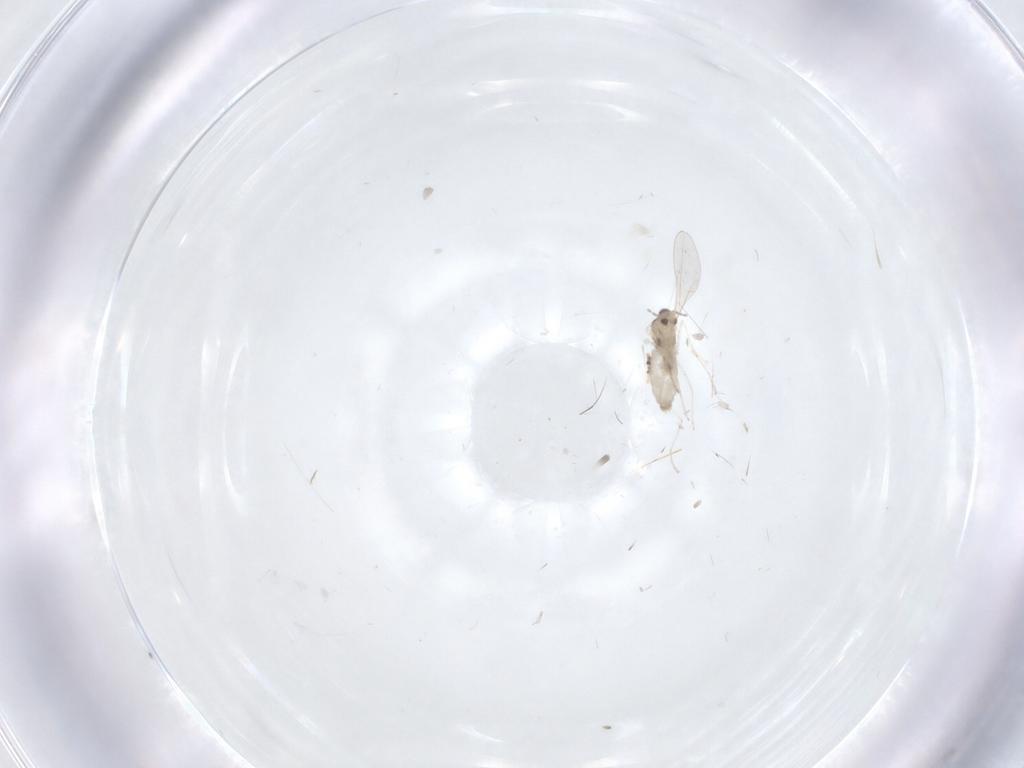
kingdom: Animalia
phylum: Arthropoda
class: Insecta
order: Diptera
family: Chironomidae
